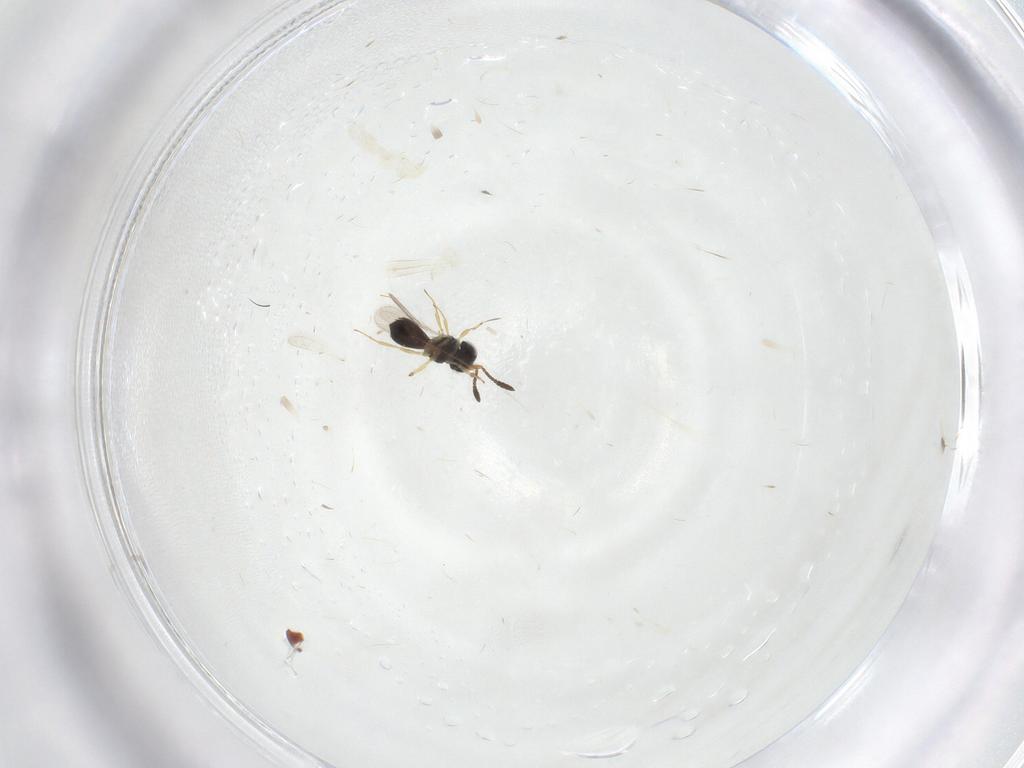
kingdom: Animalia
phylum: Arthropoda
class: Insecta
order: Hymenoptera
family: Scelionidae
